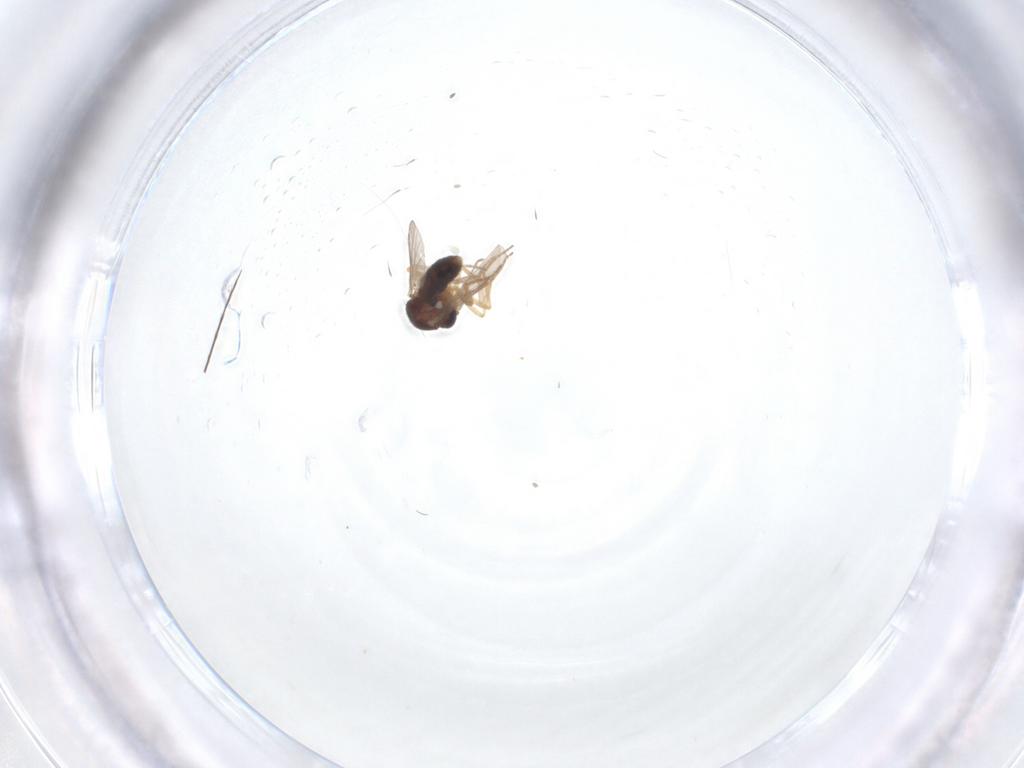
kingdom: Animalia
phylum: Arthropoda
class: Insecta
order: Diptera
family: Ceratopogonidae
